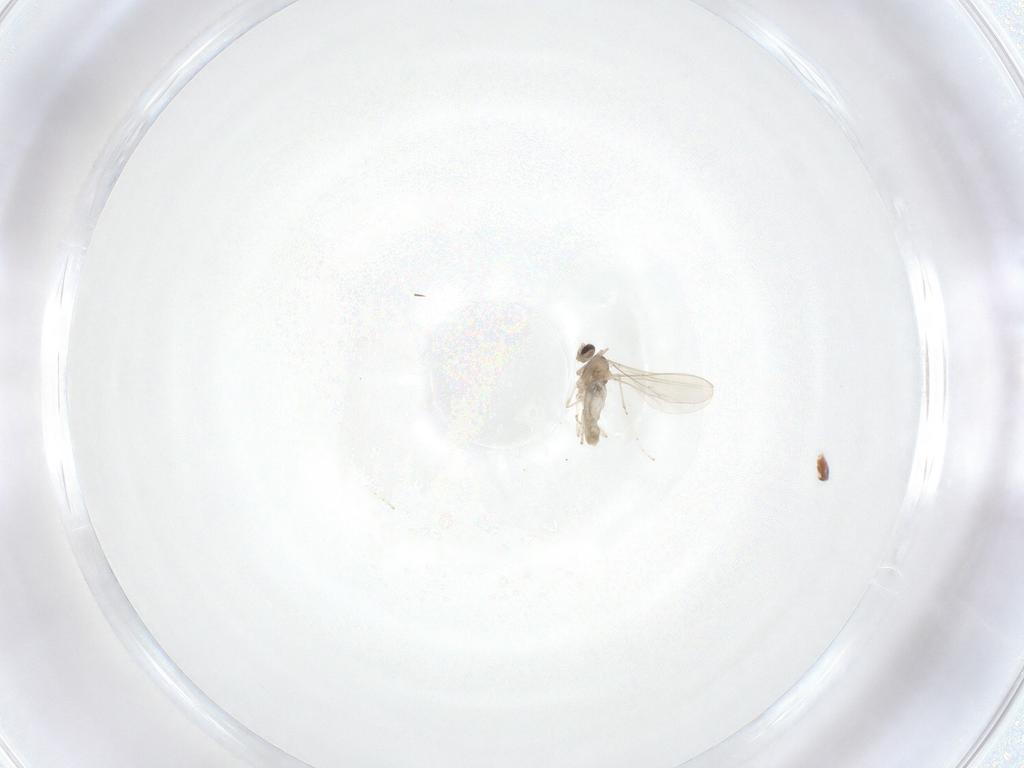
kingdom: Animalia
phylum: Arthropoda
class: Insecta
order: Diptera
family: Cecidomyiidae
